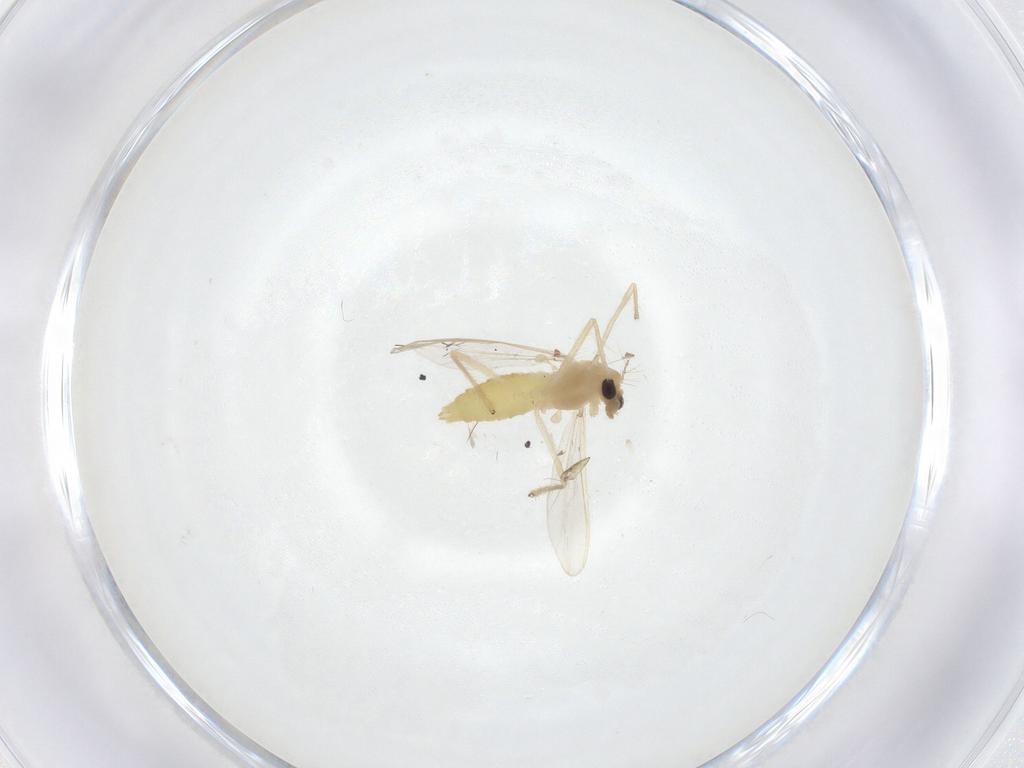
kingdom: Animalia
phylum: Arthropoda
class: Insecta
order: Diptera
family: Chironomidae
